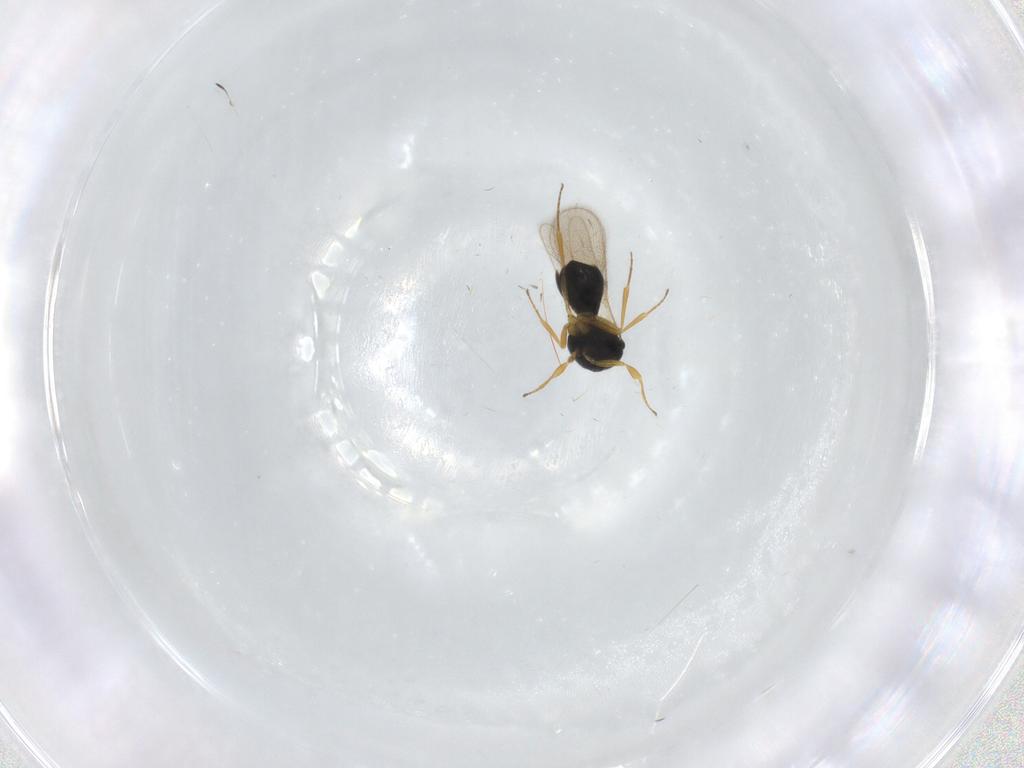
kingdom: Animalia
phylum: Arthropoda
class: Insecta
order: Hymenoptera
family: Scelionidae
